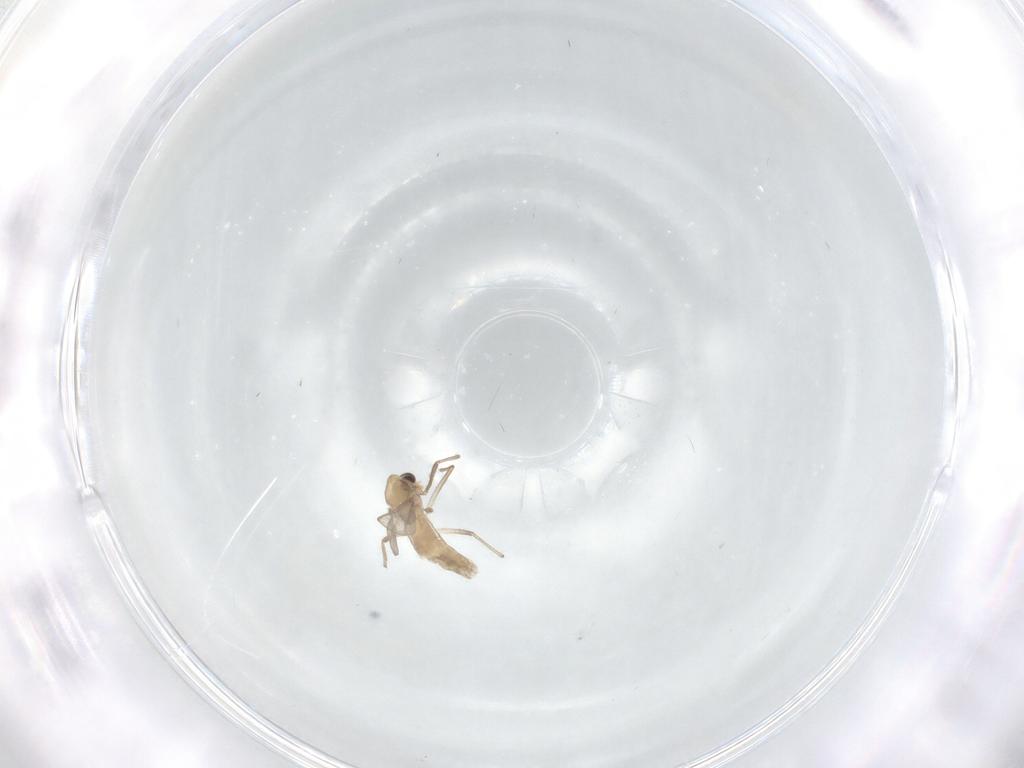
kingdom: Animalia
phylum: Arthropoda
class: Insecta
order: Diptera
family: Chironomidae
